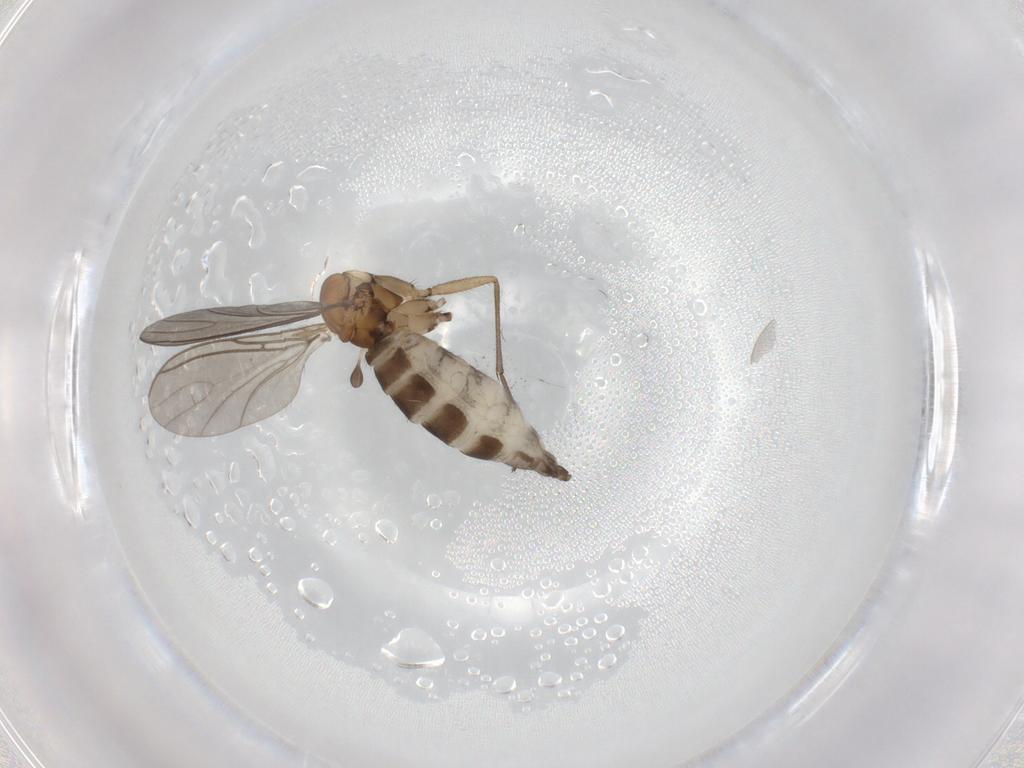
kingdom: Animalia
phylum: Arthropoda
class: Insecta
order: Diptera
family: Sciaridae
